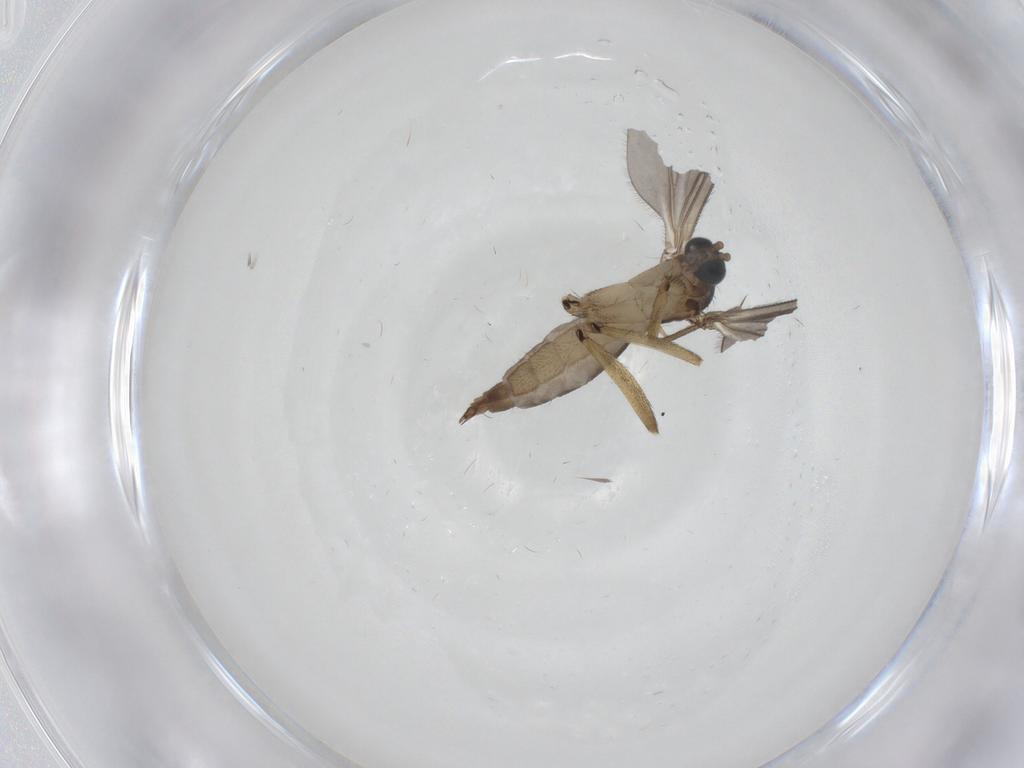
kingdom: Animalia
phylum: Arthropoda
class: Insecta
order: Diptera
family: Sciaridae
